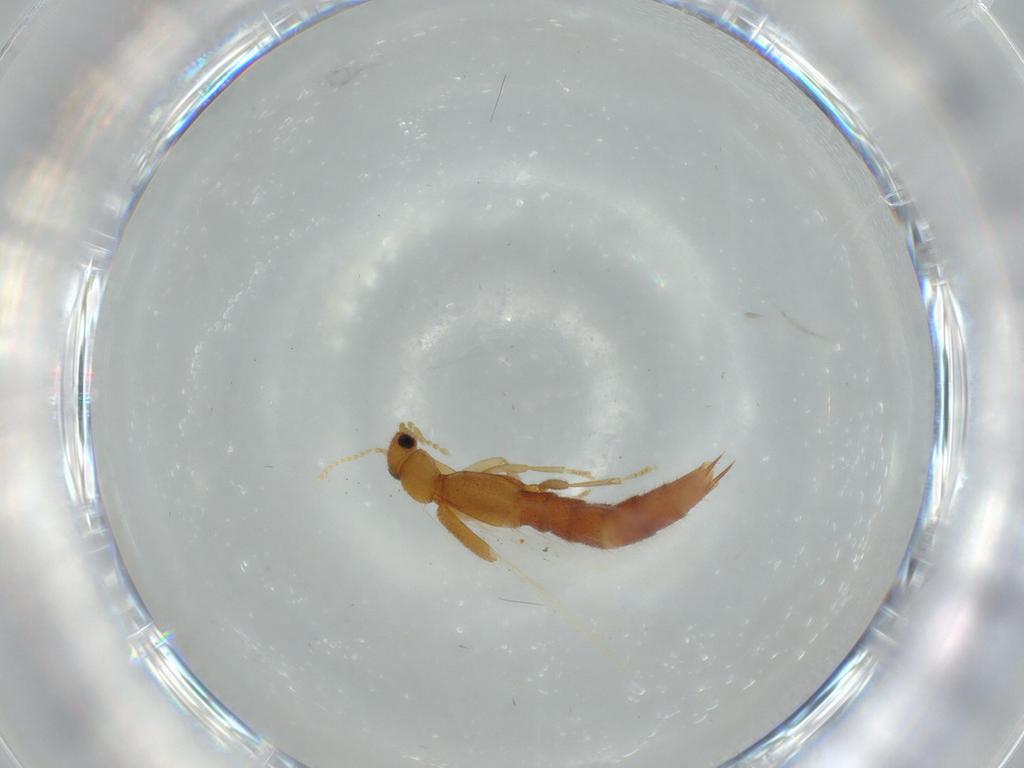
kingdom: Animalia
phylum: Arthropoda
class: Insecta
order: Coleoptera
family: Staphylinidae
